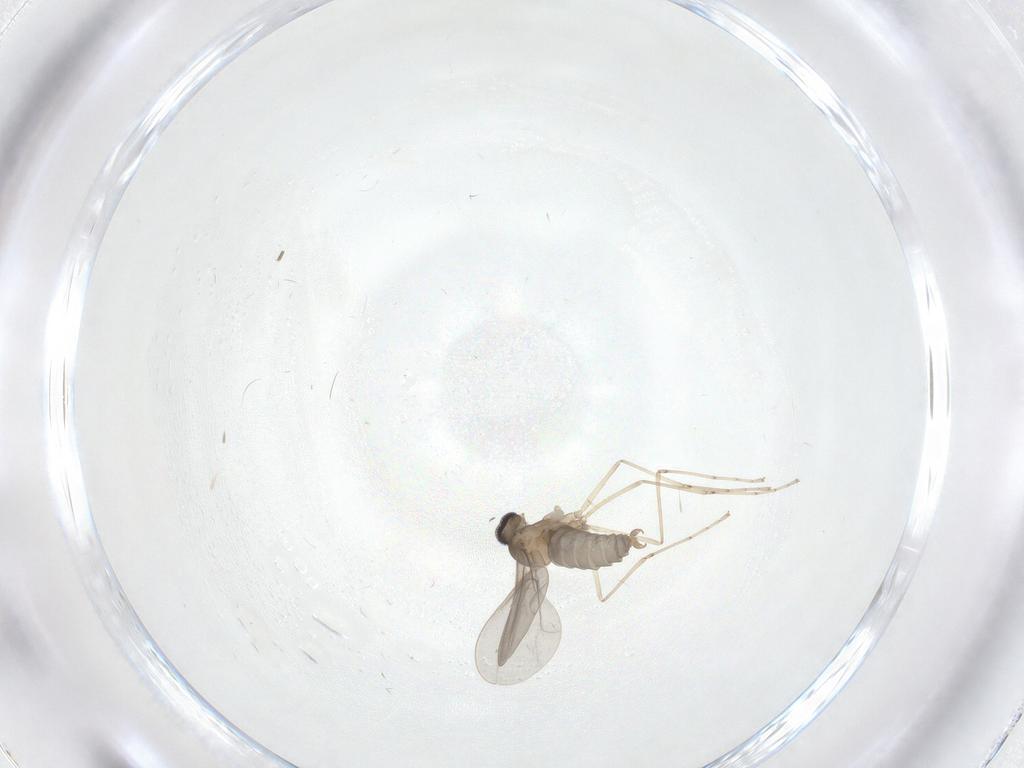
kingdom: Animalia
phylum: Arthropoda
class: Insecta
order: Diptera
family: Cecidomyiidae
